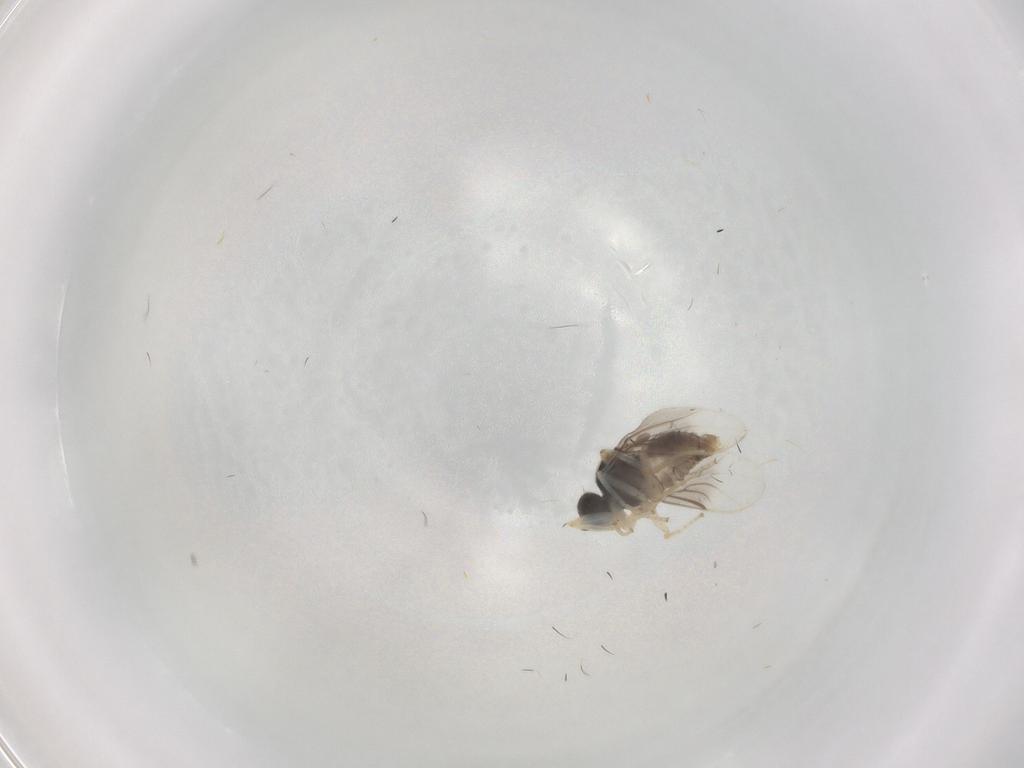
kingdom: Animalia
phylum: Arthropoda
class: Insecta
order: Diptera
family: Hybotidae
